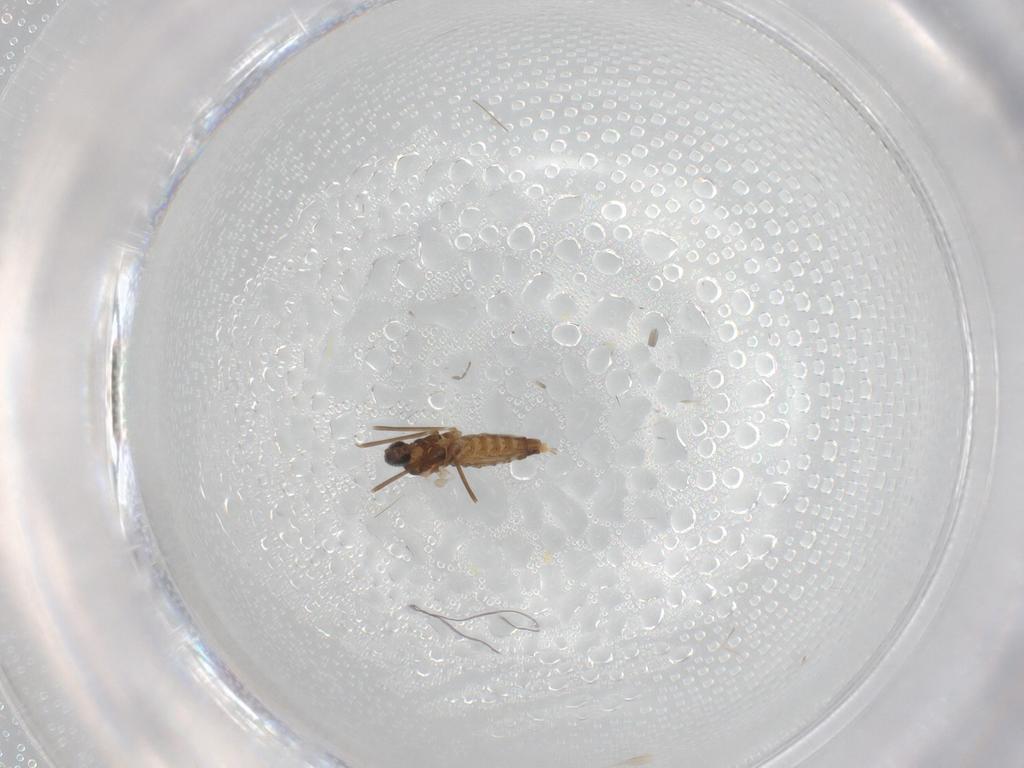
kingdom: Animalia
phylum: Arthropoda
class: Insecta
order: Diptera
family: Cecidomyiidae
